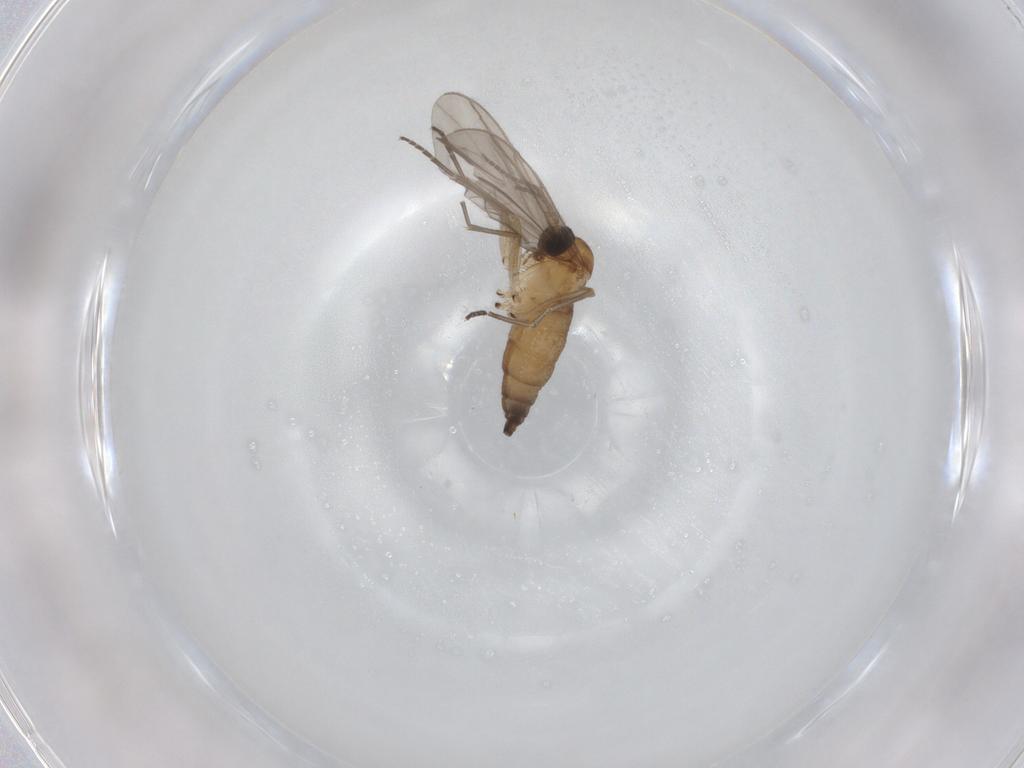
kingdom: Animalia
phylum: Arthropoda
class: Insecta
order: Diptera
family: Sciaridae
